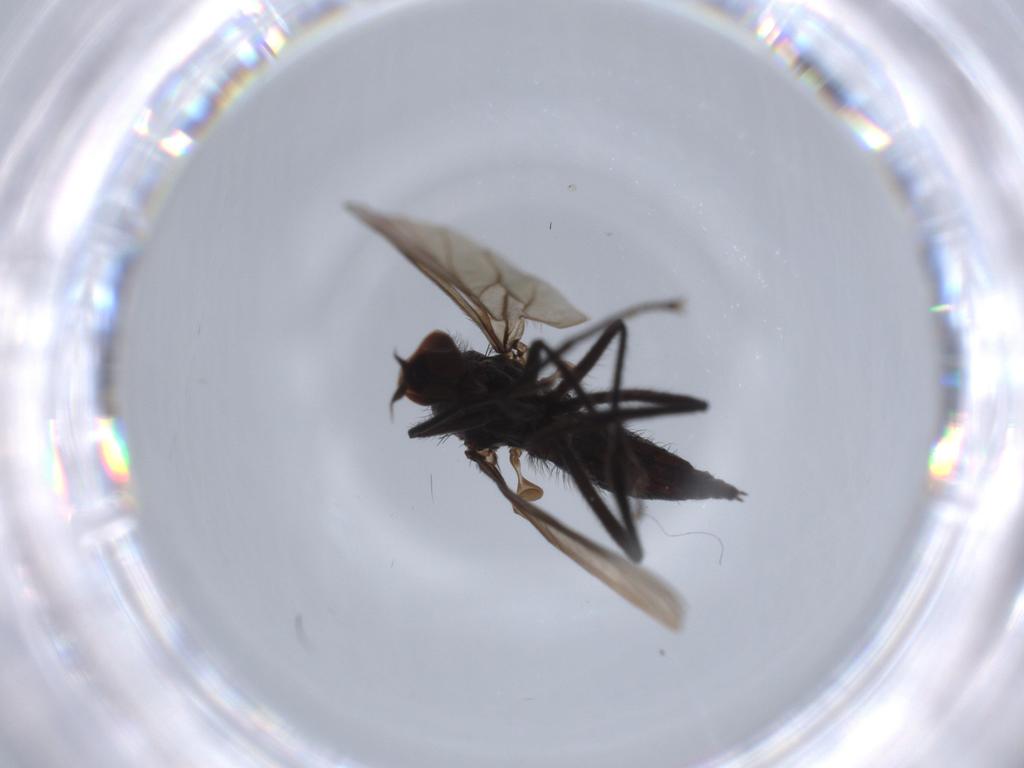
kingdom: Animalia
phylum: Arthropoda
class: Insecta
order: Diptera
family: Hybotidae
